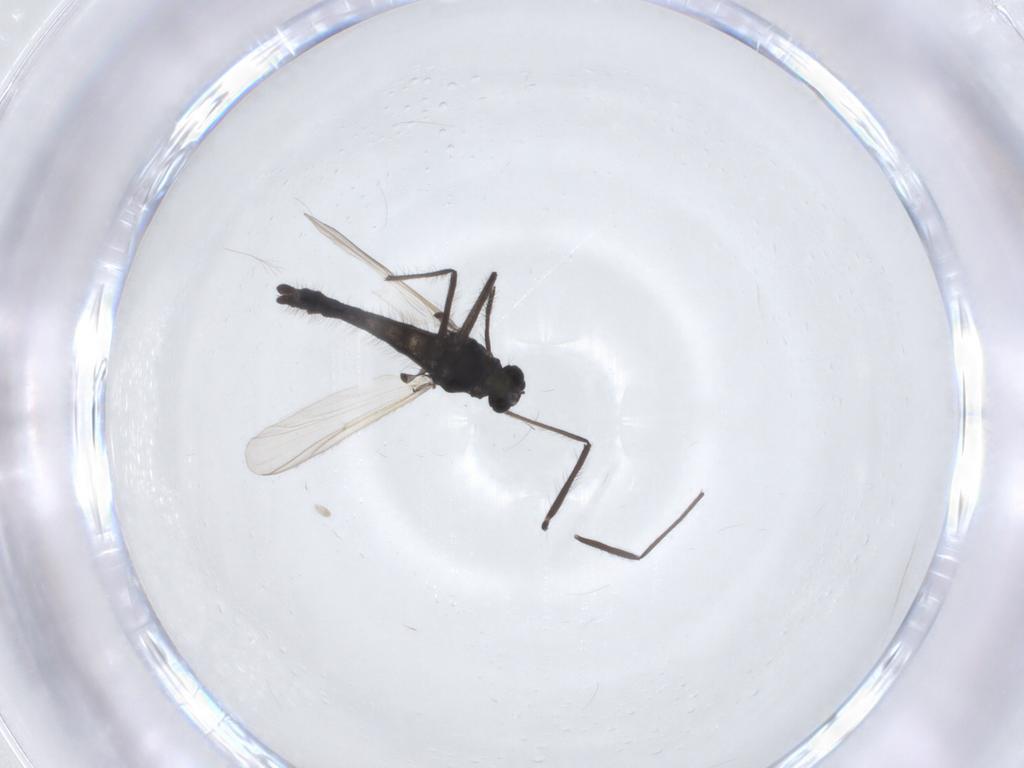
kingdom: Animalia
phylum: Arthropoda
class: Insecta
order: Diptera
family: Chironomidae
